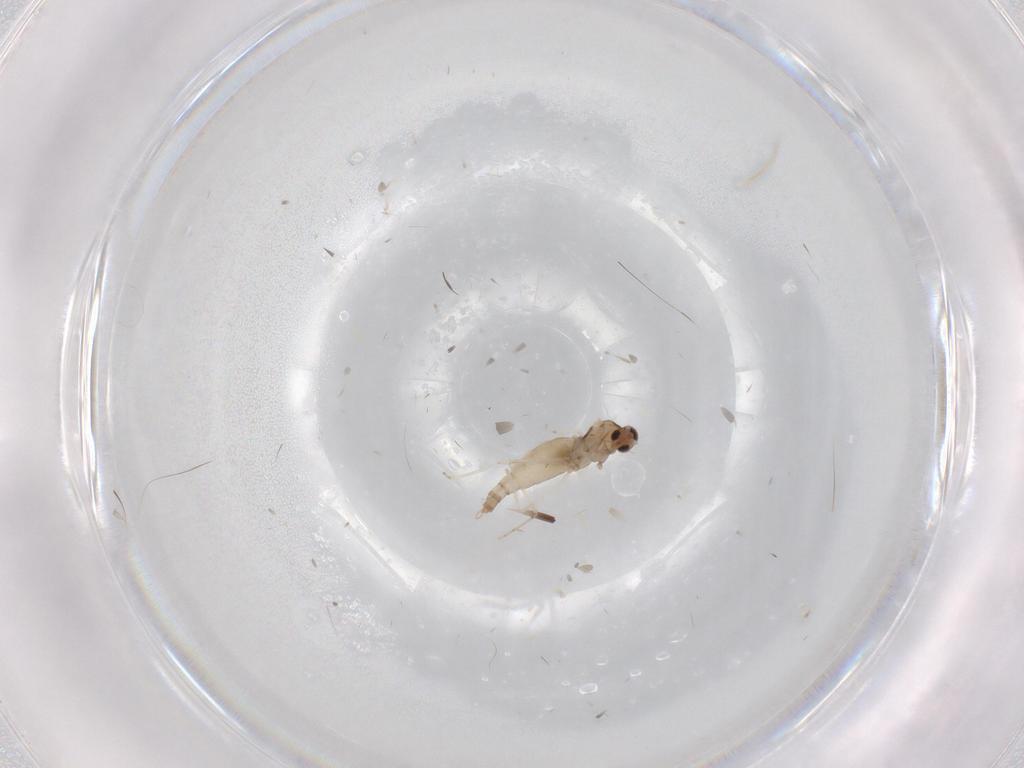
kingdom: Animalia
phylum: Arthropoda
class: Insecta
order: Diptera
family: Cecidomyiidae
